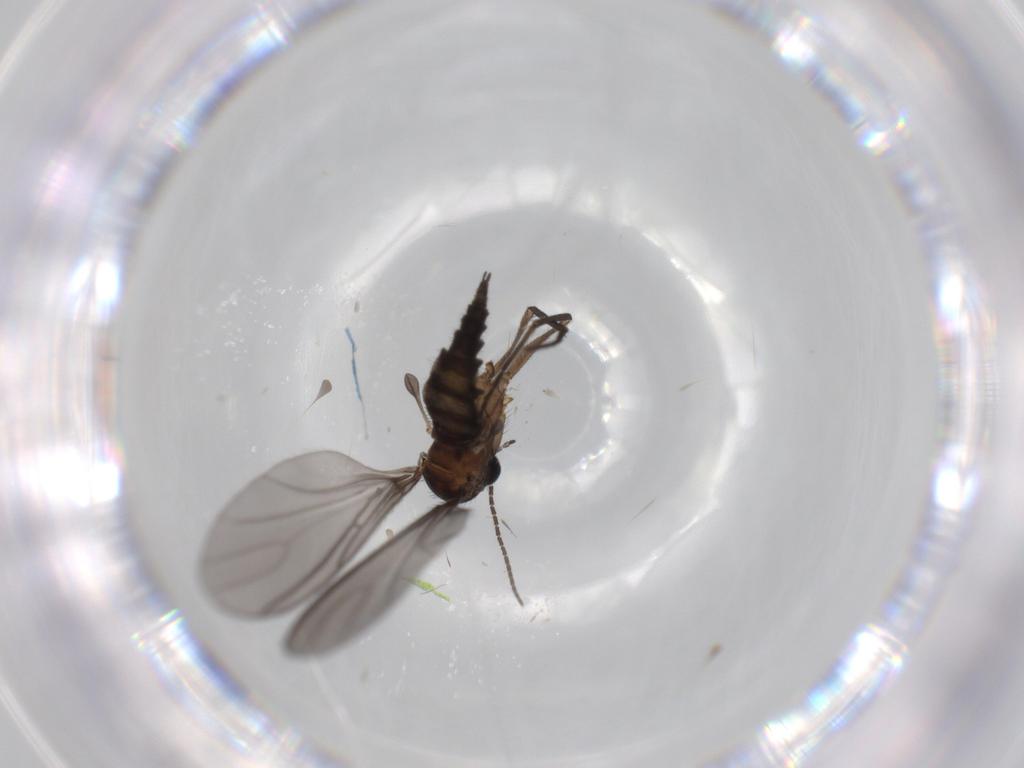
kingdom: Animalia
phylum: Arthropoda
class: Insecta
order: Diptera
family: Sciaridae
